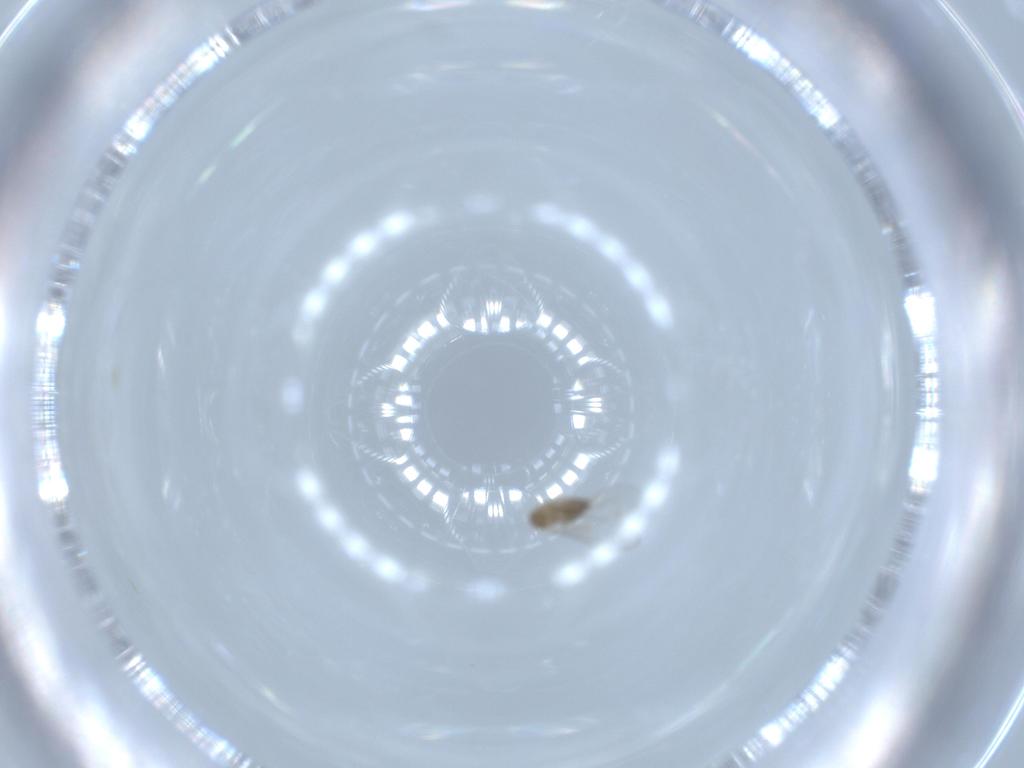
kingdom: Animalia
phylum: Arthropoda
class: Insecta
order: Diptera
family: Cecidomyiidae
